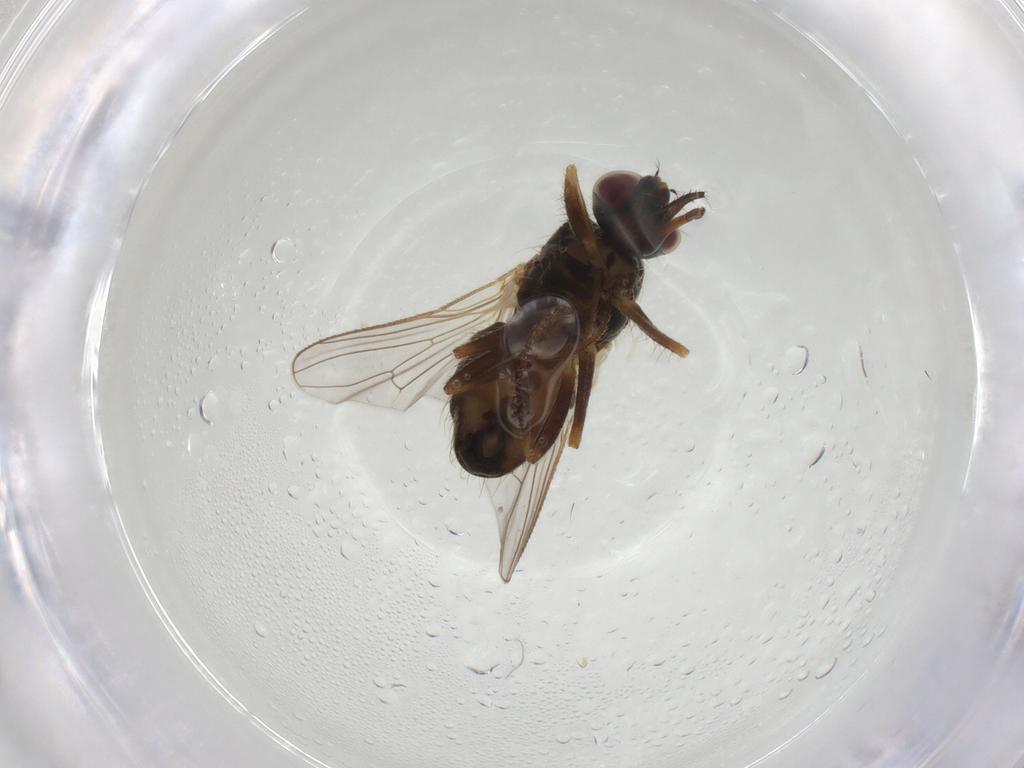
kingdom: Animalia
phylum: Arthropoda
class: Insecta
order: Diptera
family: Muscidae
